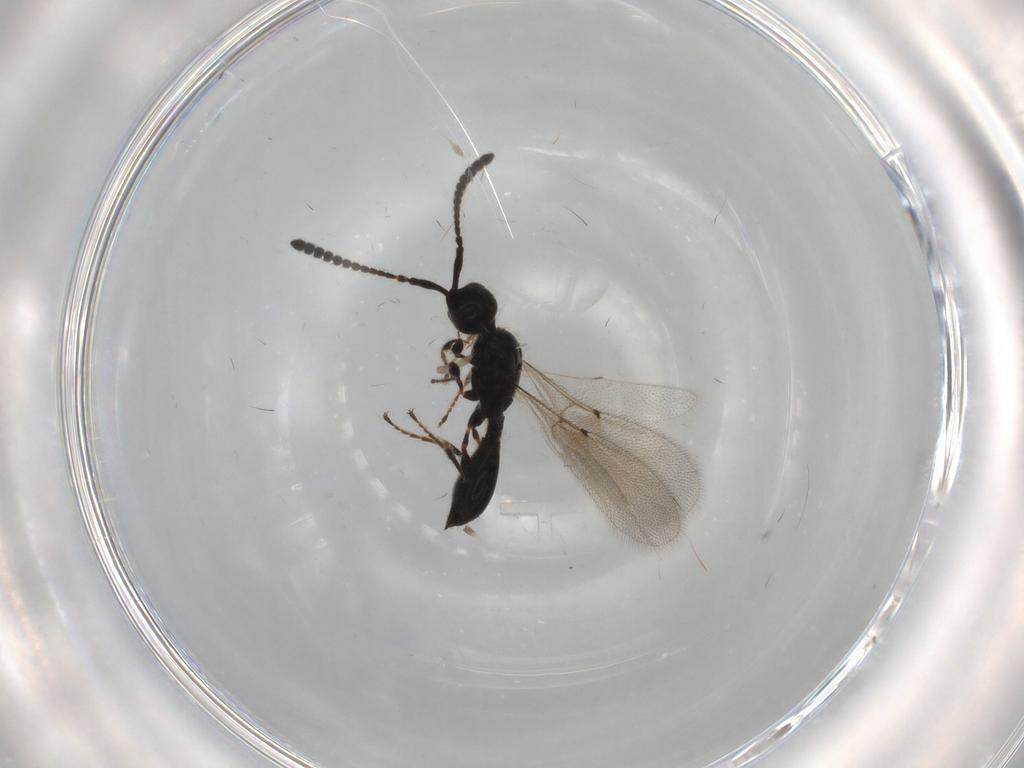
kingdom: Animalia
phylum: Arthropoda
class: Insecta
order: Hymenoptera
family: Diapriidae
